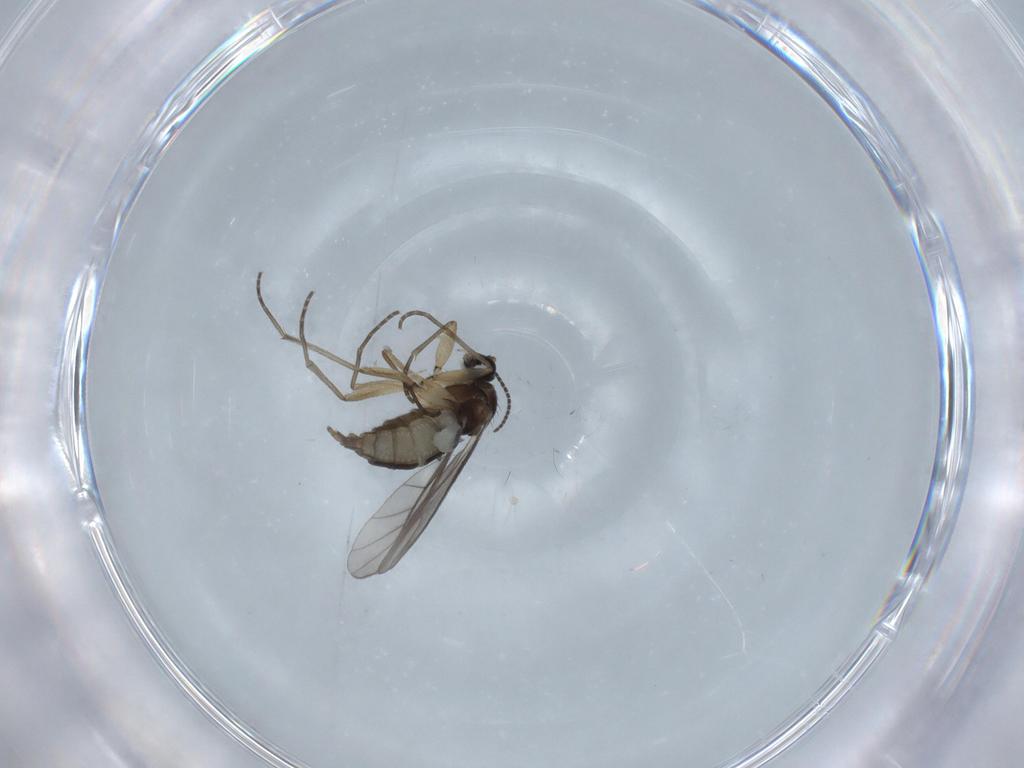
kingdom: Animalia
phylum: Arthropoda
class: Insecta
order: Diptera
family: Sciaridae
